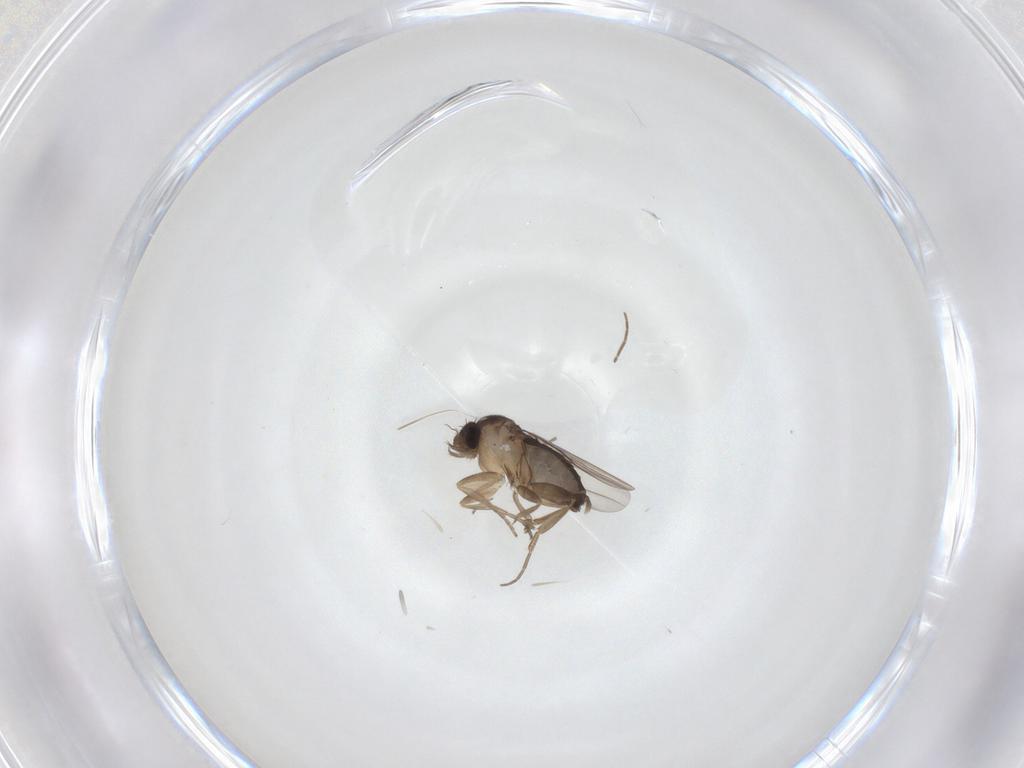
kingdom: Animalia
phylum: Arthropoda
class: Insecta
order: Diptera
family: Phoridae
